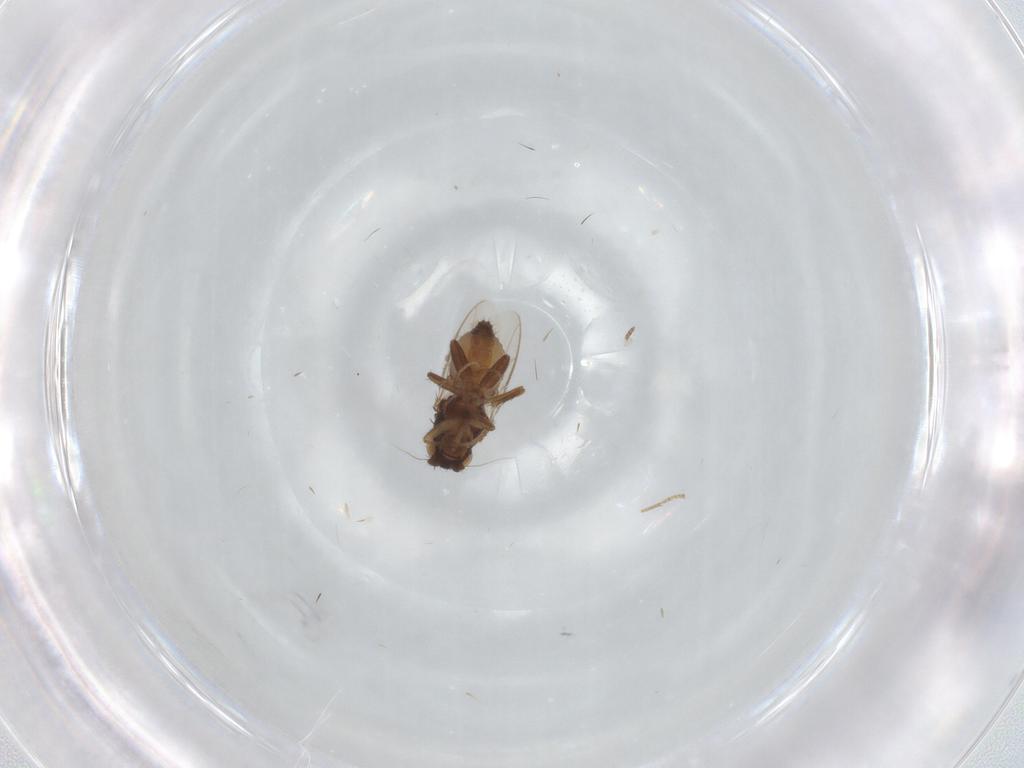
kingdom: Animalia
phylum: Arthropoda
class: Insecta
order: Diptera
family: Sphaeroceridae
